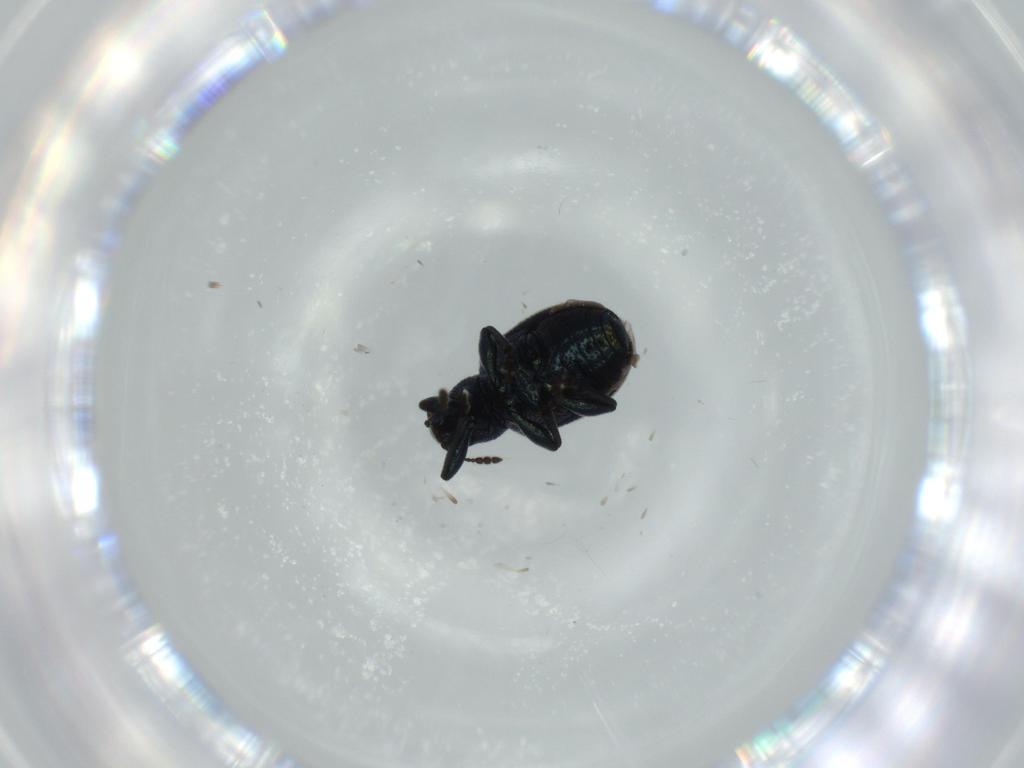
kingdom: Animalia
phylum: Arthropoda
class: Insecta
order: Coleoptera
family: Attelabidae
